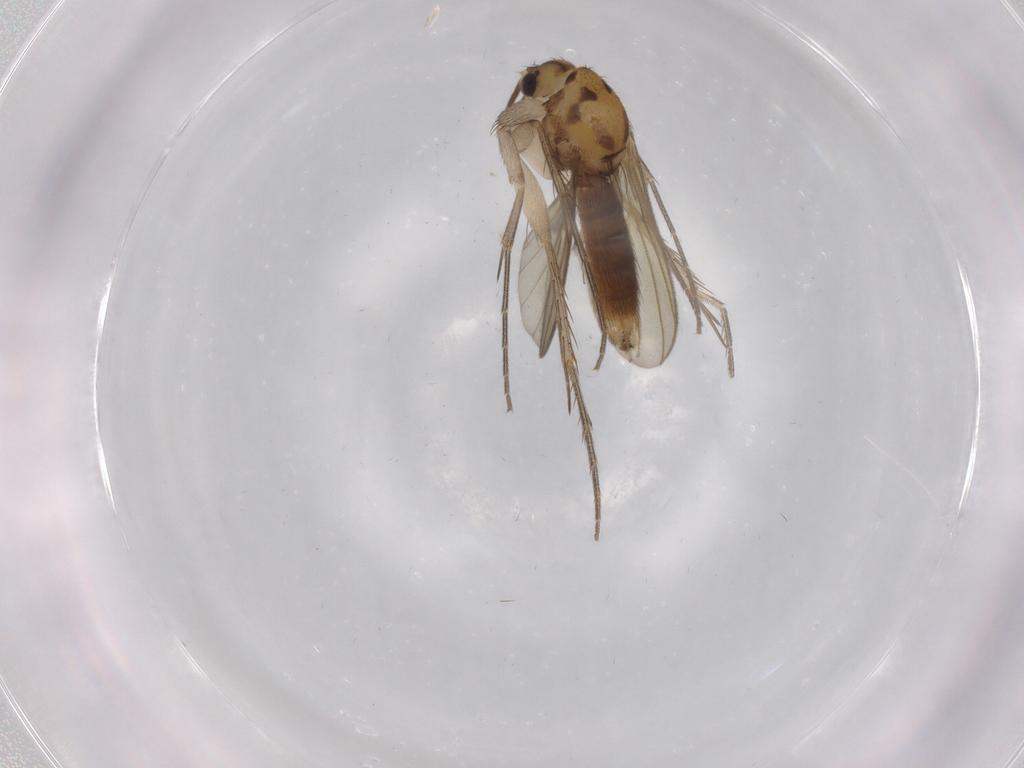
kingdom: Animalia
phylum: Arthropoda
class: Insecta
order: Diptera
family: Mycetophilidae
